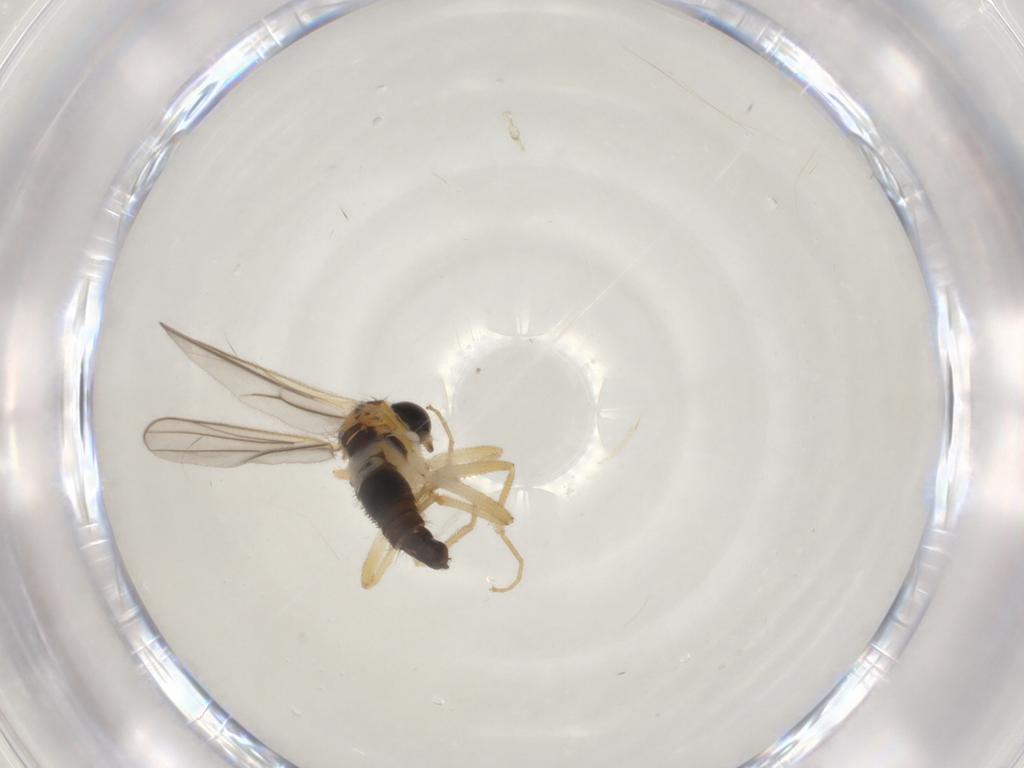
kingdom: Animalia
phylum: Arthropoda
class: Insecta
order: Diptera
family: Hybotidae
